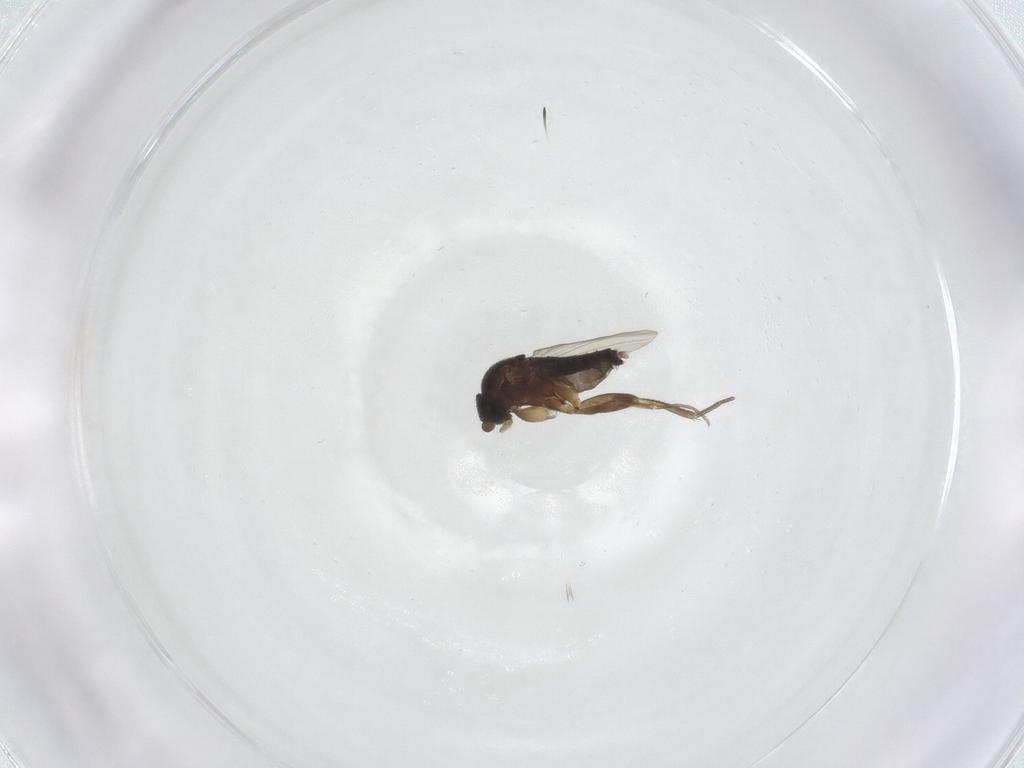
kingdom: Animalia
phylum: Arthropoda
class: Insecta
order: Diptera
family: Phoridae
